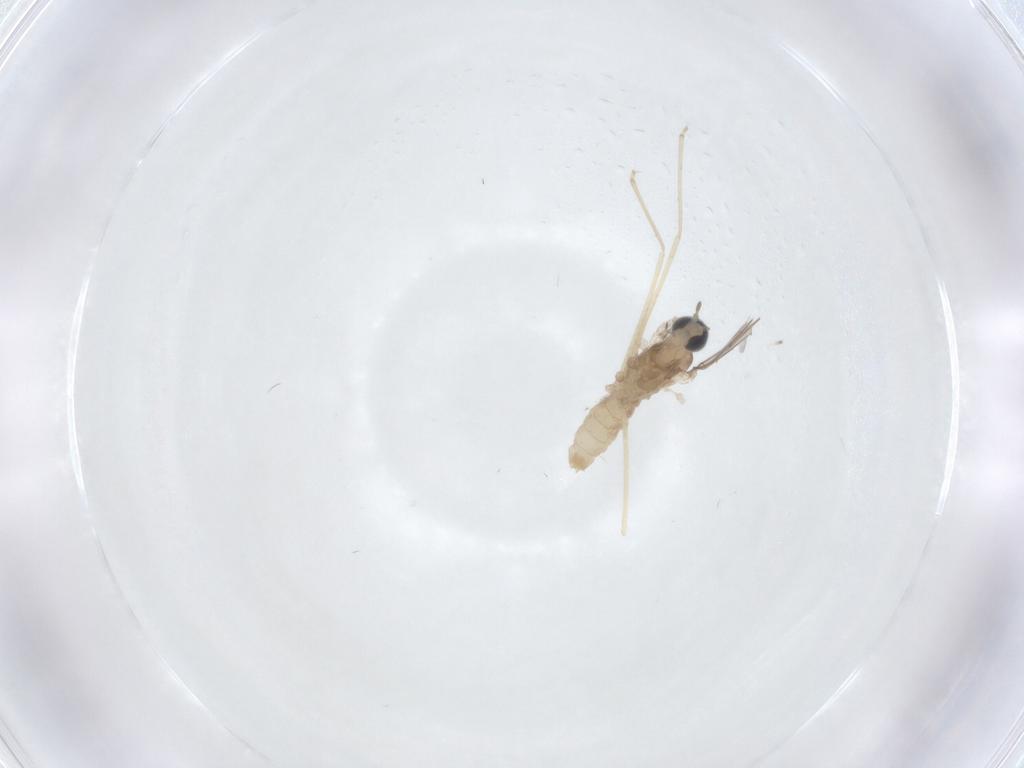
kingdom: Animalia
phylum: Arthropoda
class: Insecta
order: Diptera
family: Cecidomyiidae
